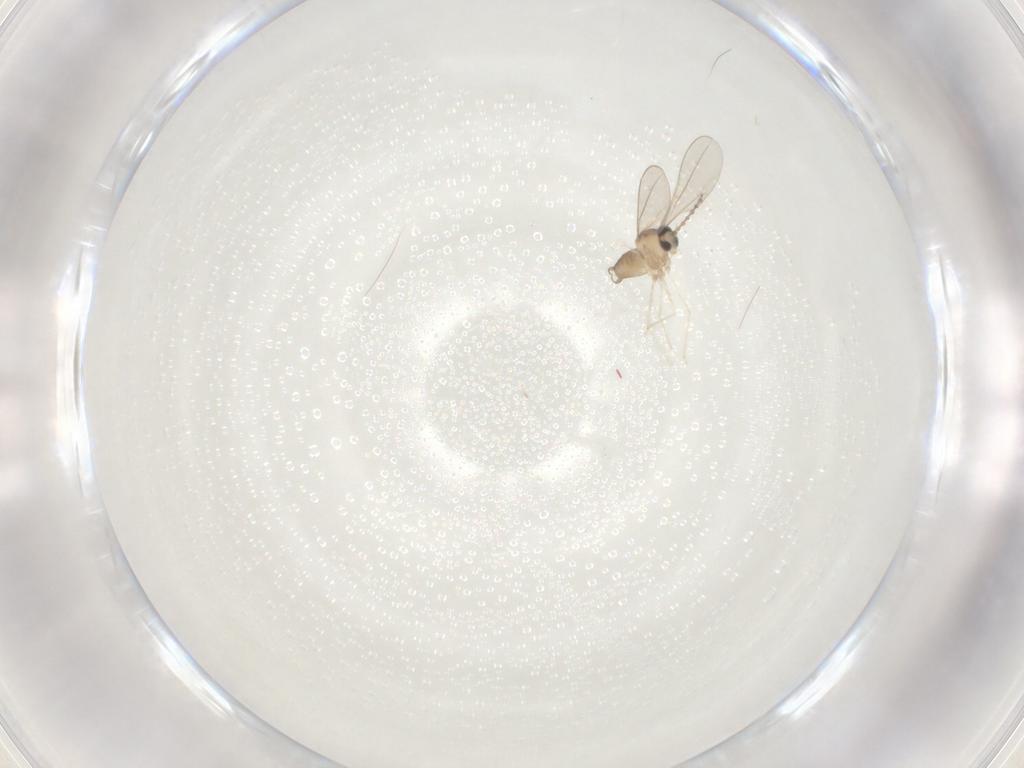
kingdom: Animalia
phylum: Arthropoda
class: Insecta
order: Diptera
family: Cecidomyiidae
